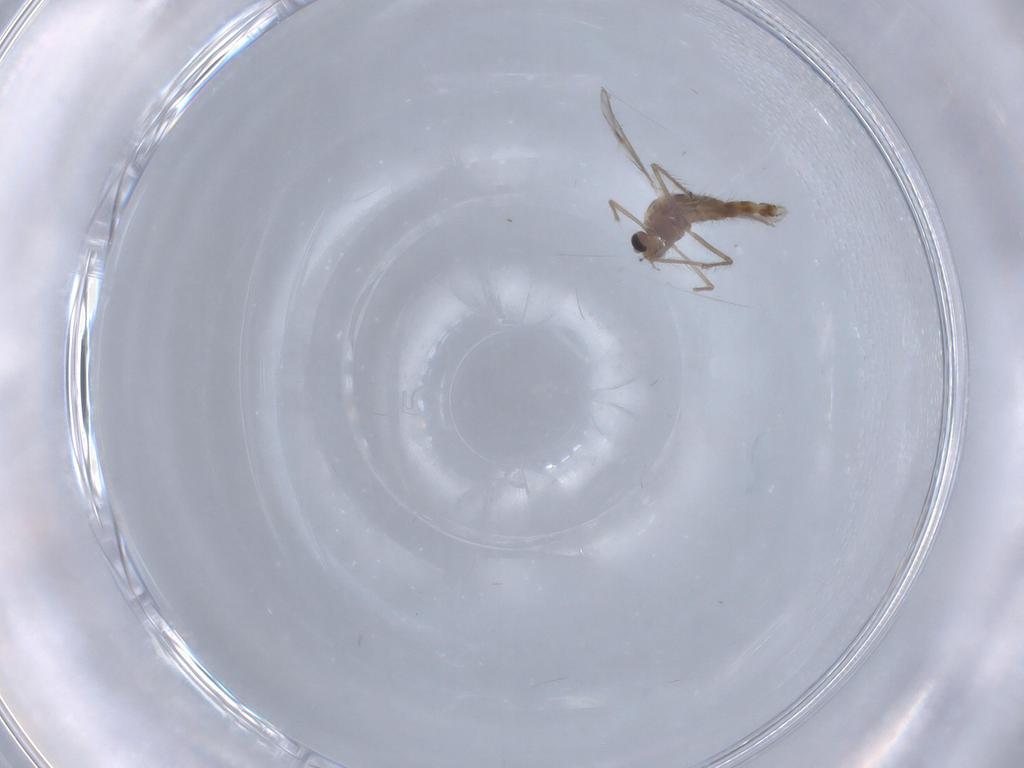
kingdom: Animalia
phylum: Arthropoda
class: Insecta
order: Diptera
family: Chironomidae
